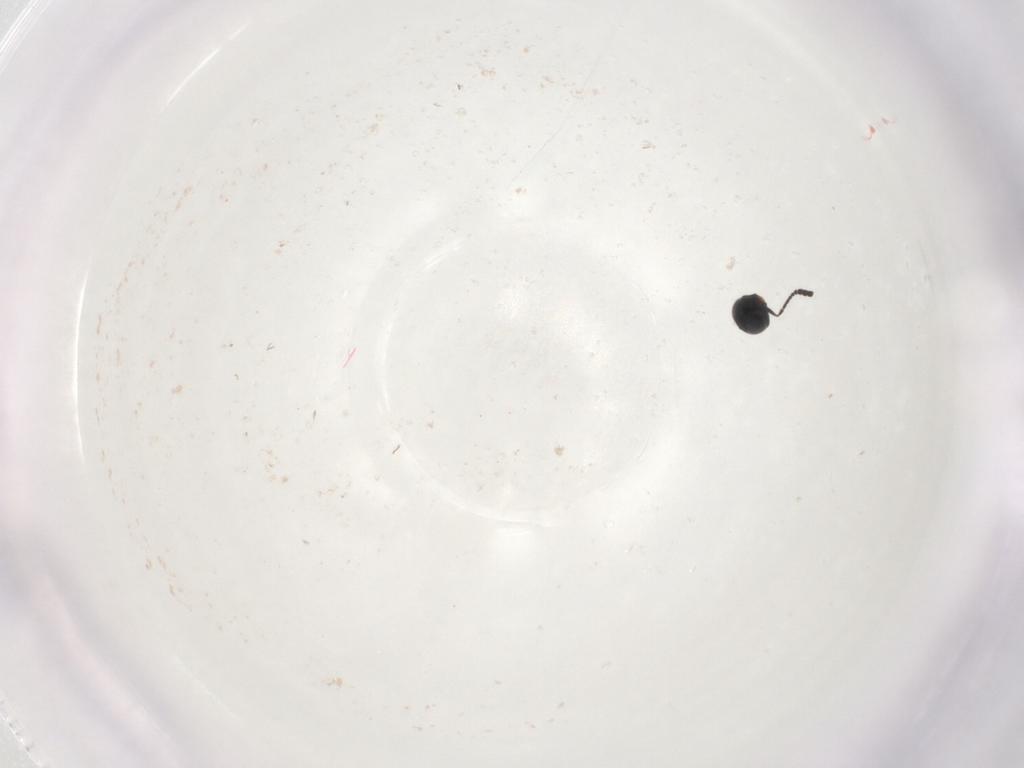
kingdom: Animalia
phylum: Arthropoda
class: Insecta
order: Hymenoptera
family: Scelionidae
